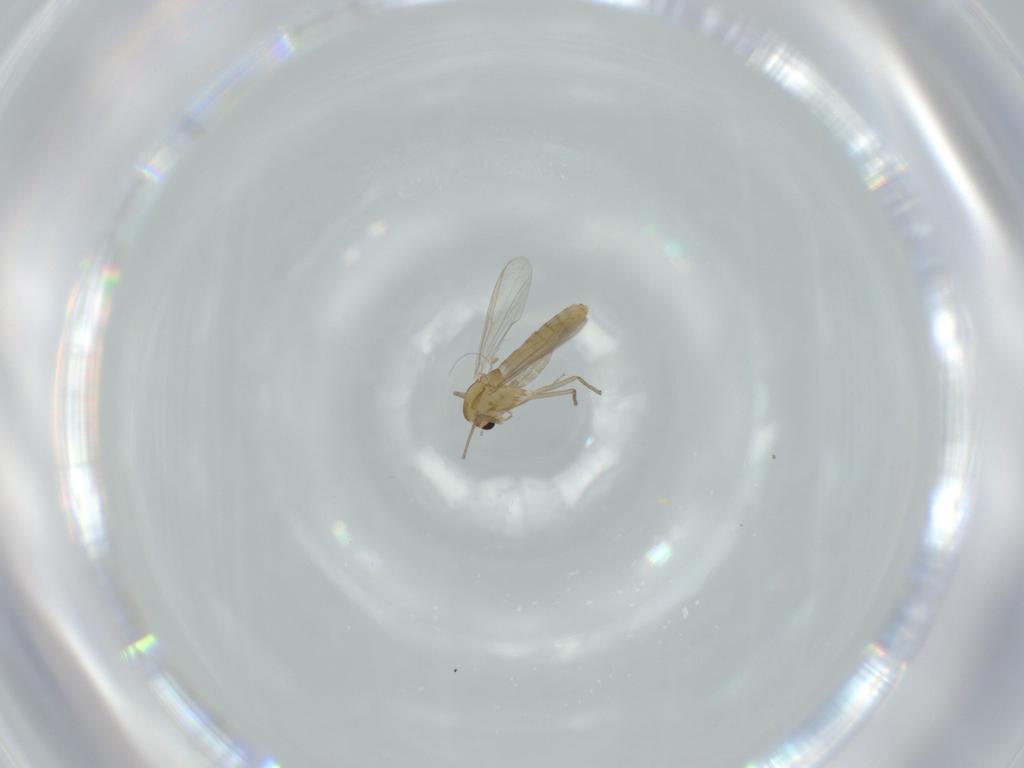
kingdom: Animalia
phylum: Arthropoda
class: Insecta
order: Diptera
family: Chironomidae
